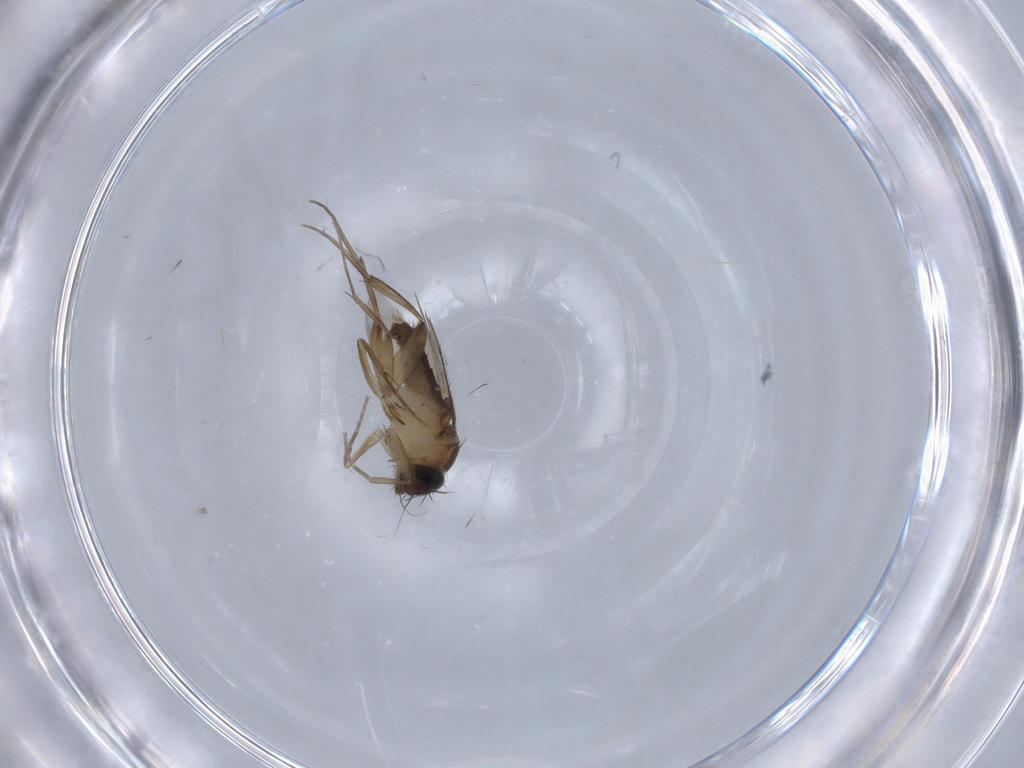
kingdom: Animalia
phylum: Arthropoda
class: Insecta
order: Diptera
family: Phoridae
